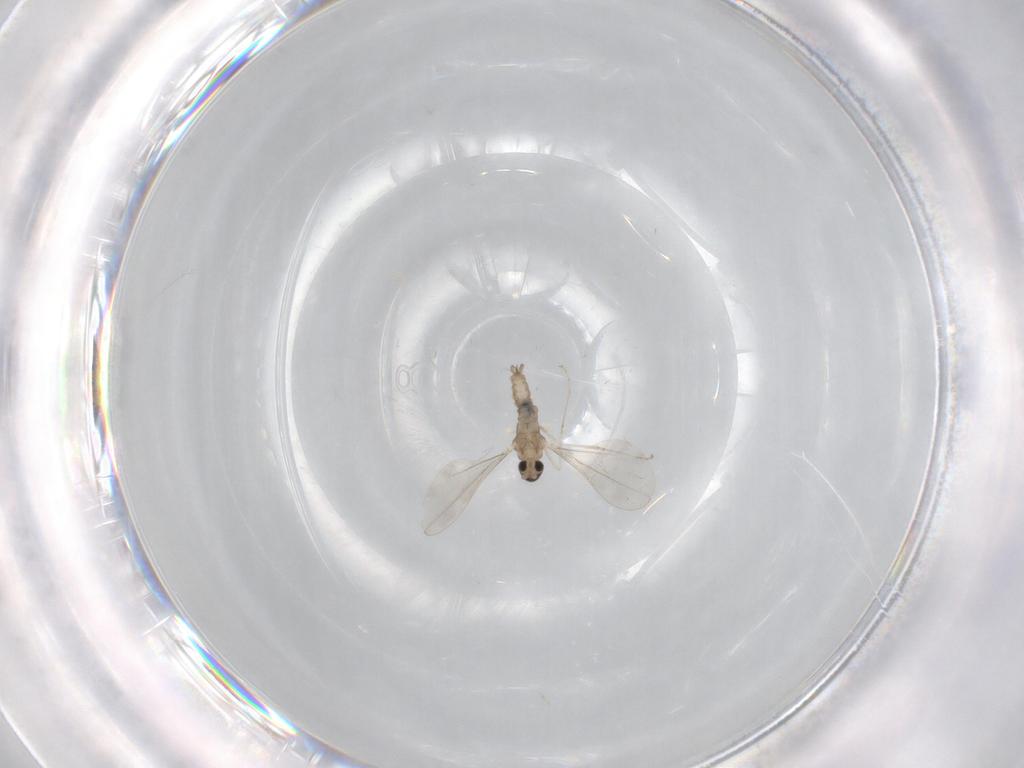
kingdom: Animalia
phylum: Arthropoda
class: Insecta
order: Diptera
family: Cecidomyiidae
